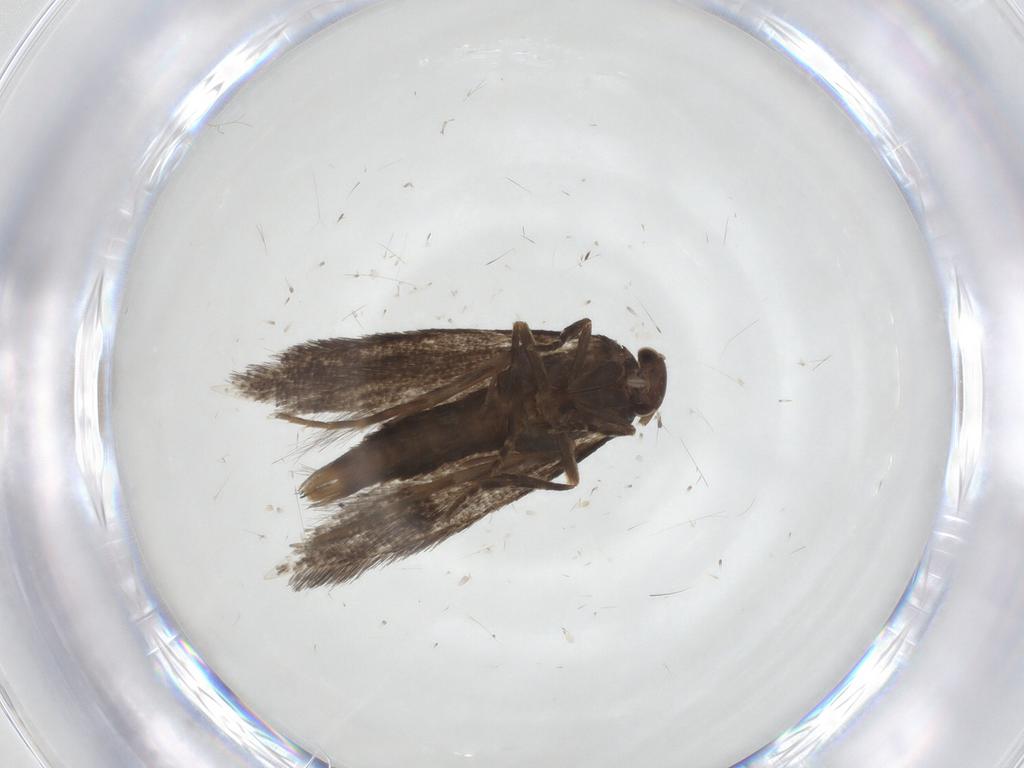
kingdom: Animalia
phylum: Arthropoda
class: Insecta
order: Lepidoptera
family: Elachistidae
